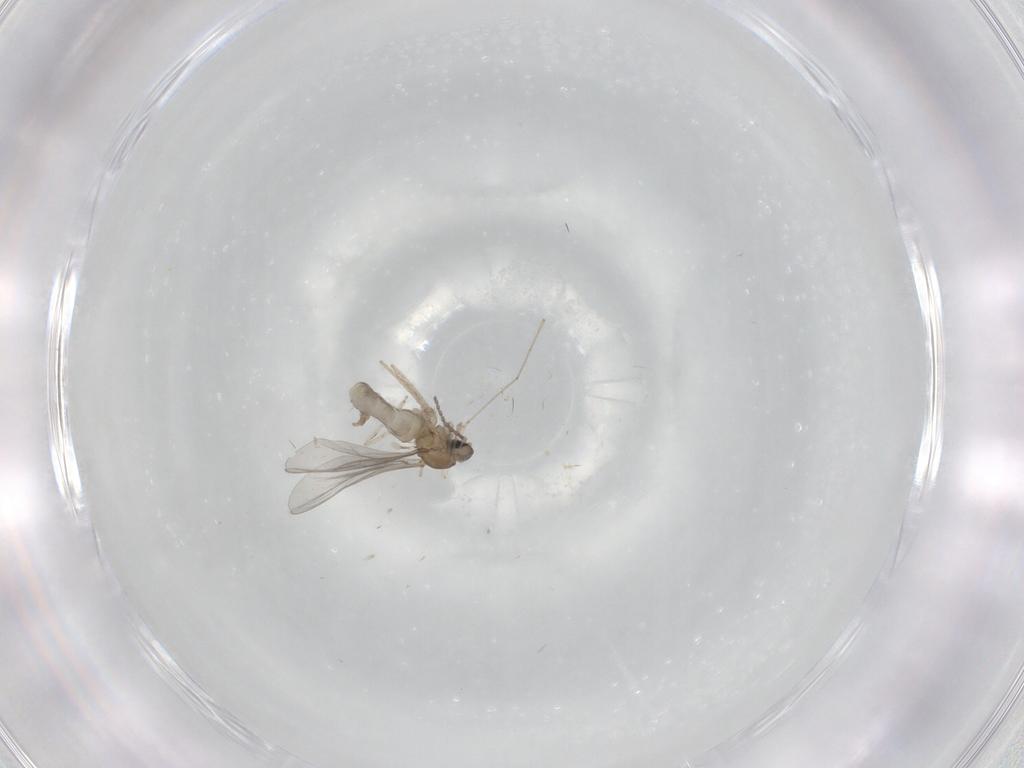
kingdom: Animalia
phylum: Arthropoda
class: Insecta
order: Diptera
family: Cecidomyiidae
